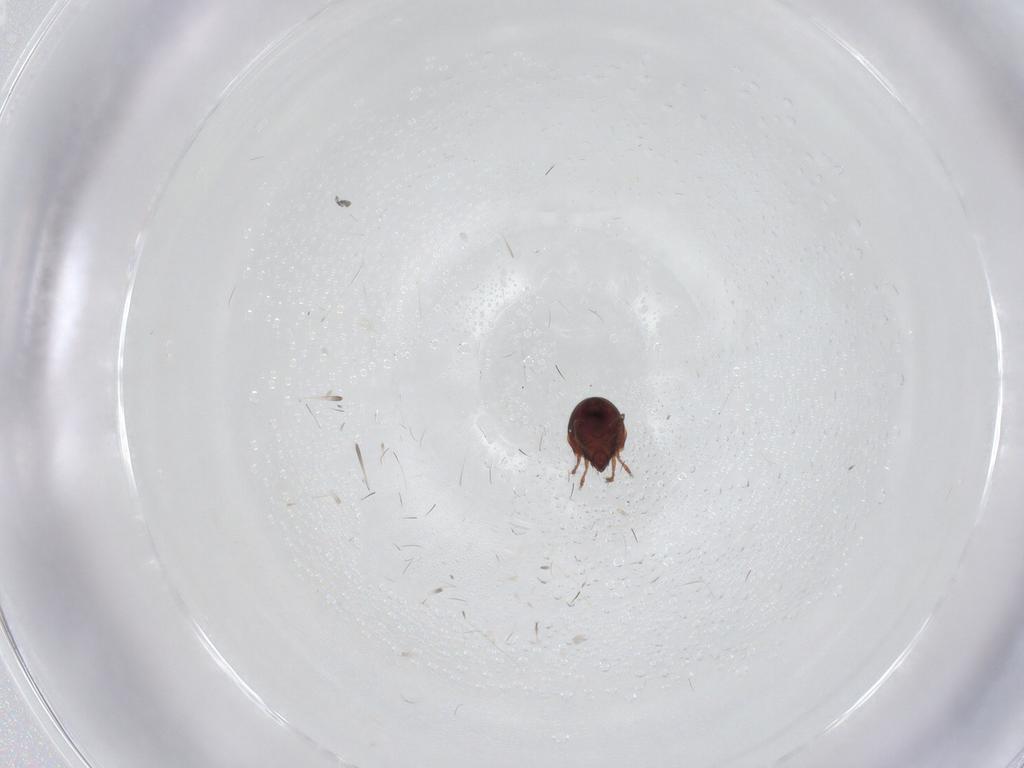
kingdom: Animalia
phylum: Arthropoda
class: Arachnida
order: Sarcoptiformes
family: Ceratozetidae
